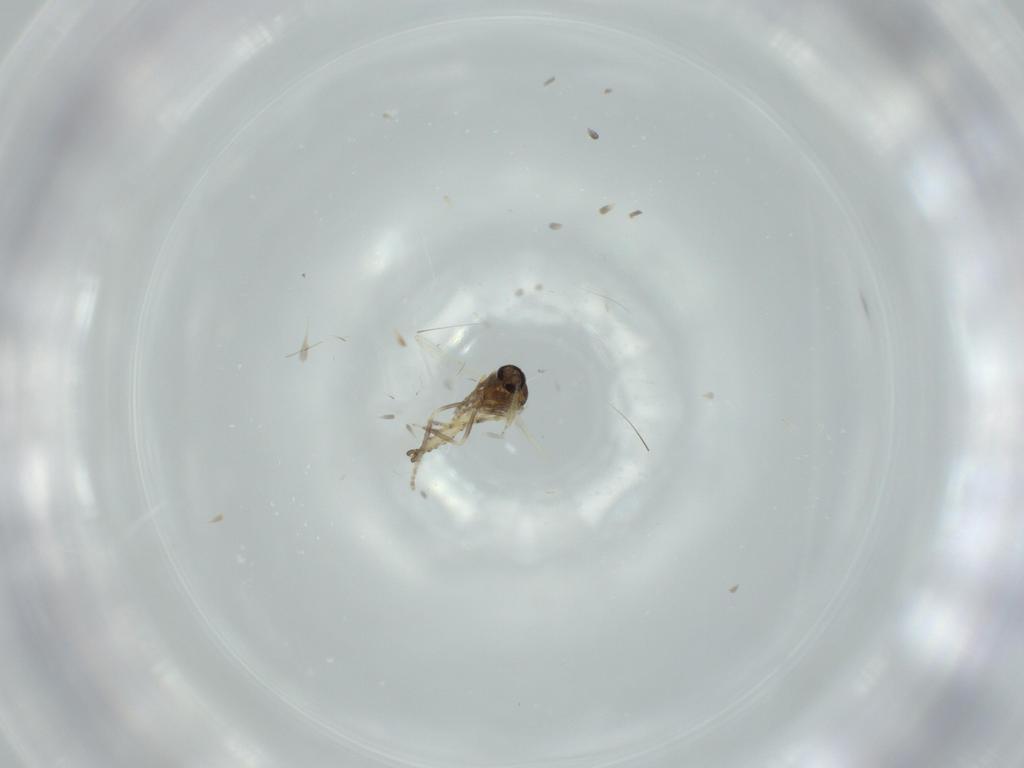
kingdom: Animalia
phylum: Arthropoda
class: Insecta
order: Diptera
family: Ceratopogonidae
